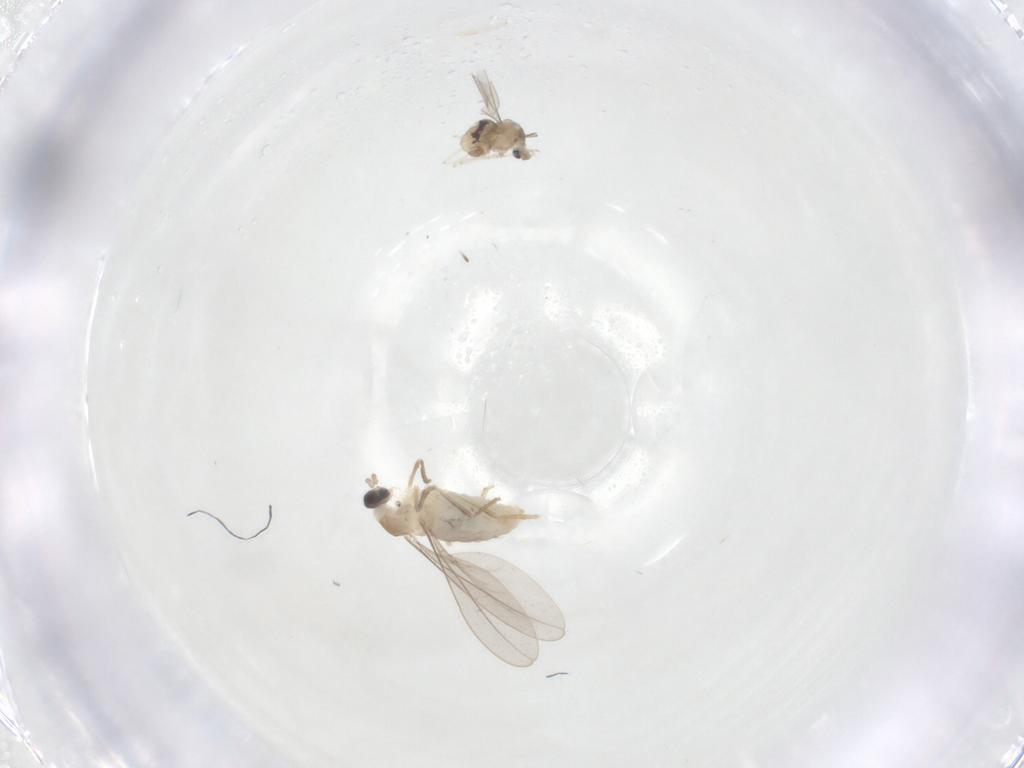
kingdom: Animalia
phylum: Arthropoda
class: Insecta
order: Diptera
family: Cecidomyiidae
